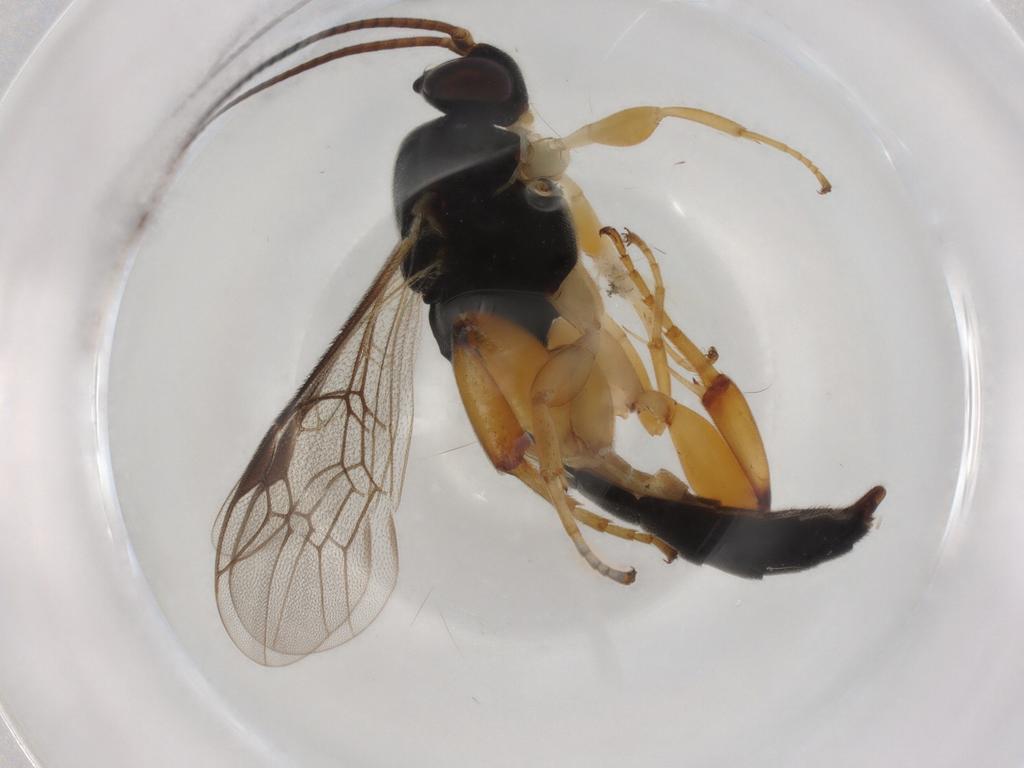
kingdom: Animalia
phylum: Arthropoda
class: Insecta
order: Hymenoptera
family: Ichneumonidae
